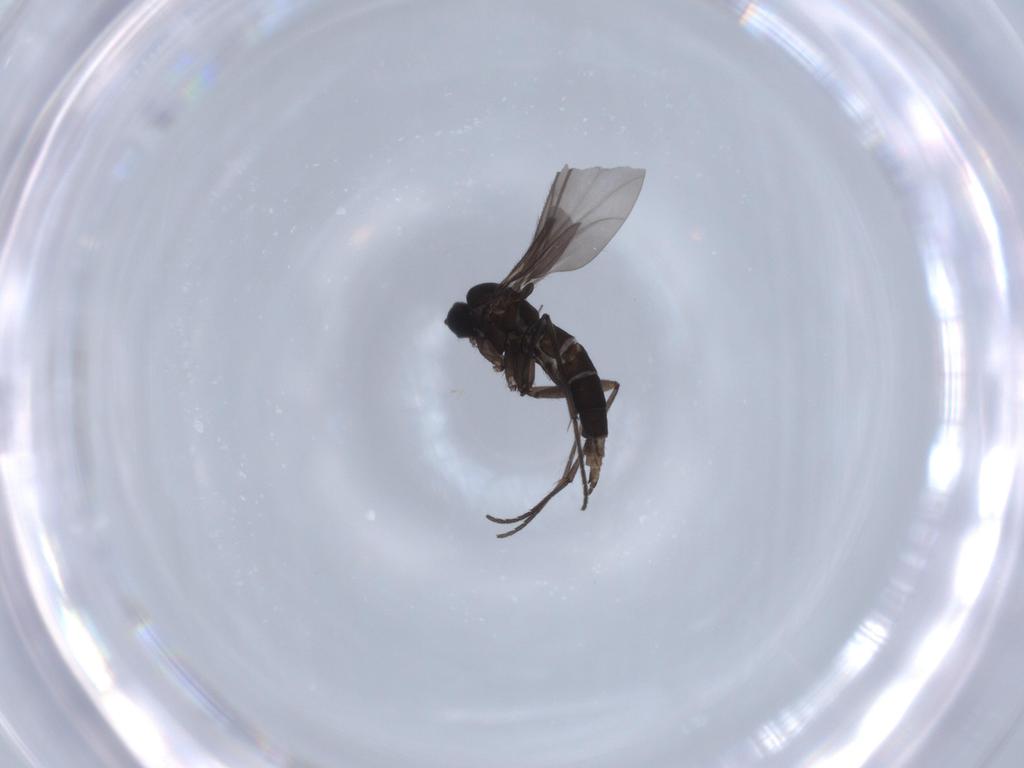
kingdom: Animalia
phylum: Arthropoda
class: Insecta
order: Diptera
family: Sciaridae
